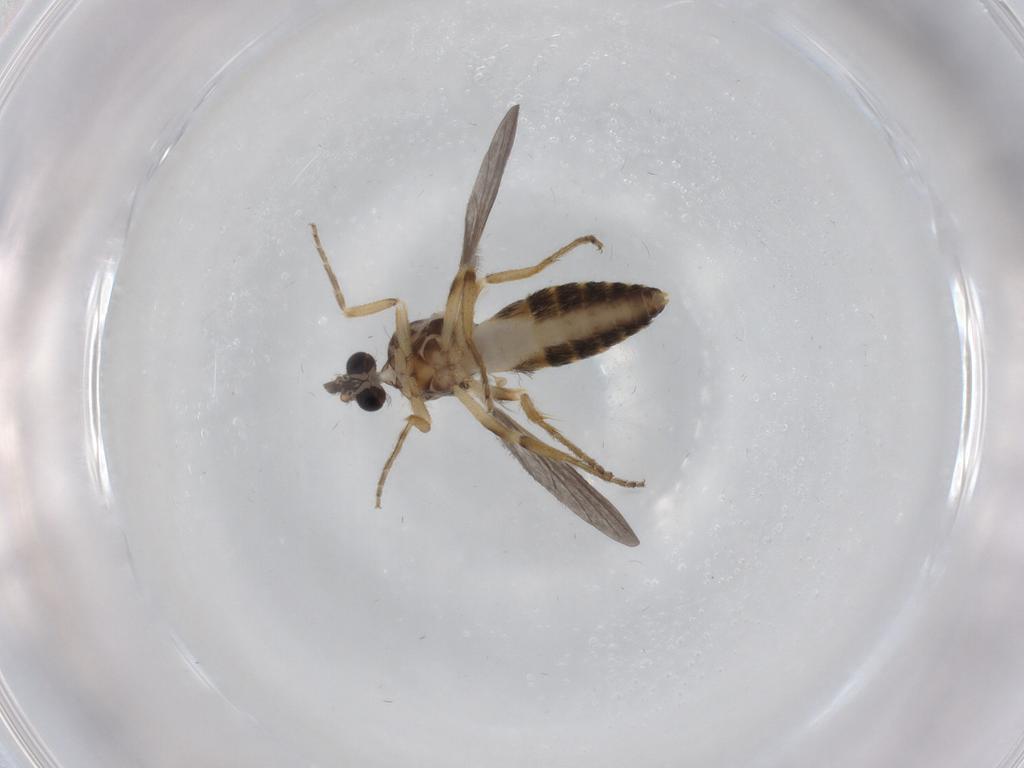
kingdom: Animalia
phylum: Arthropoda
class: Insecta
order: Diptera
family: Ceratopogonidae
